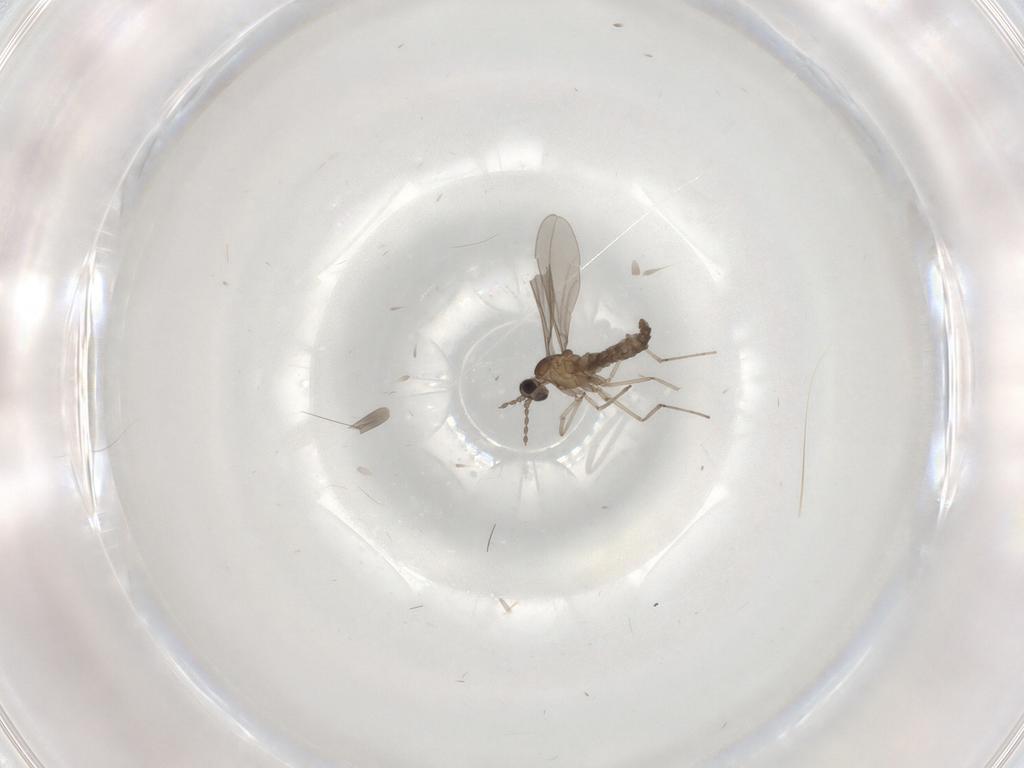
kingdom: Animalia
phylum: Arthropoda
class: Insecta
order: Diptera
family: Cecidomyiidae
